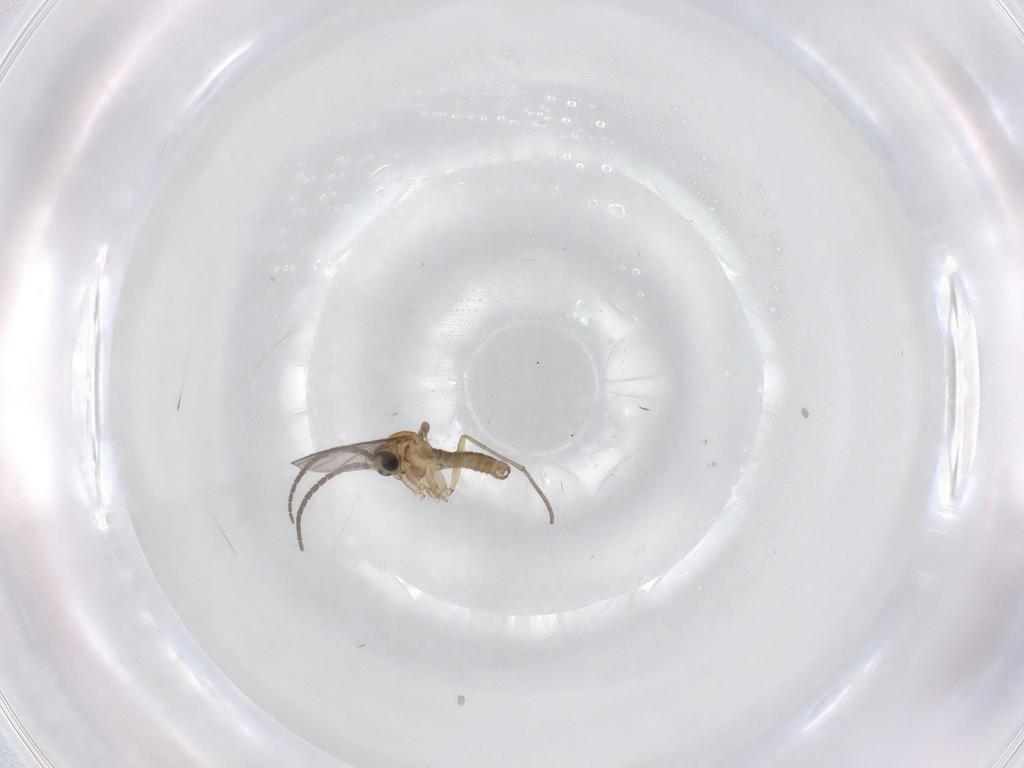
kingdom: Animalia
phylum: Arthropoda
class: Insecta
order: Diptera
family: Sciaridae
